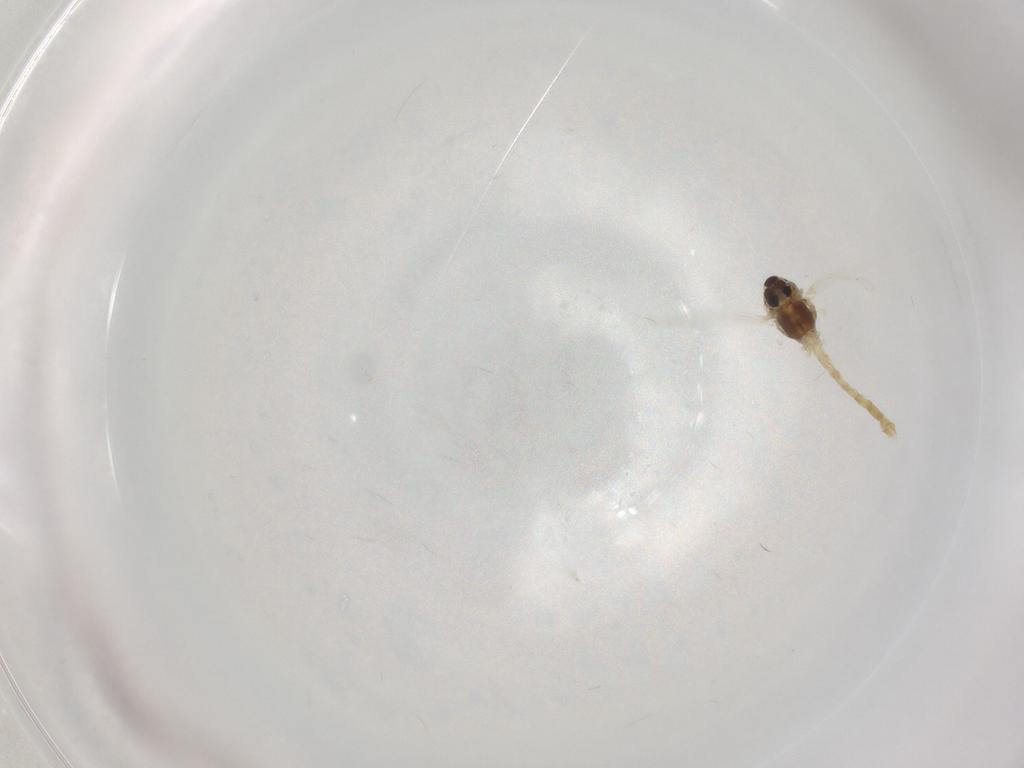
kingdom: Animalia
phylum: Arthropoda
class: Insecta
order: Diptera
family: Chironomidae
